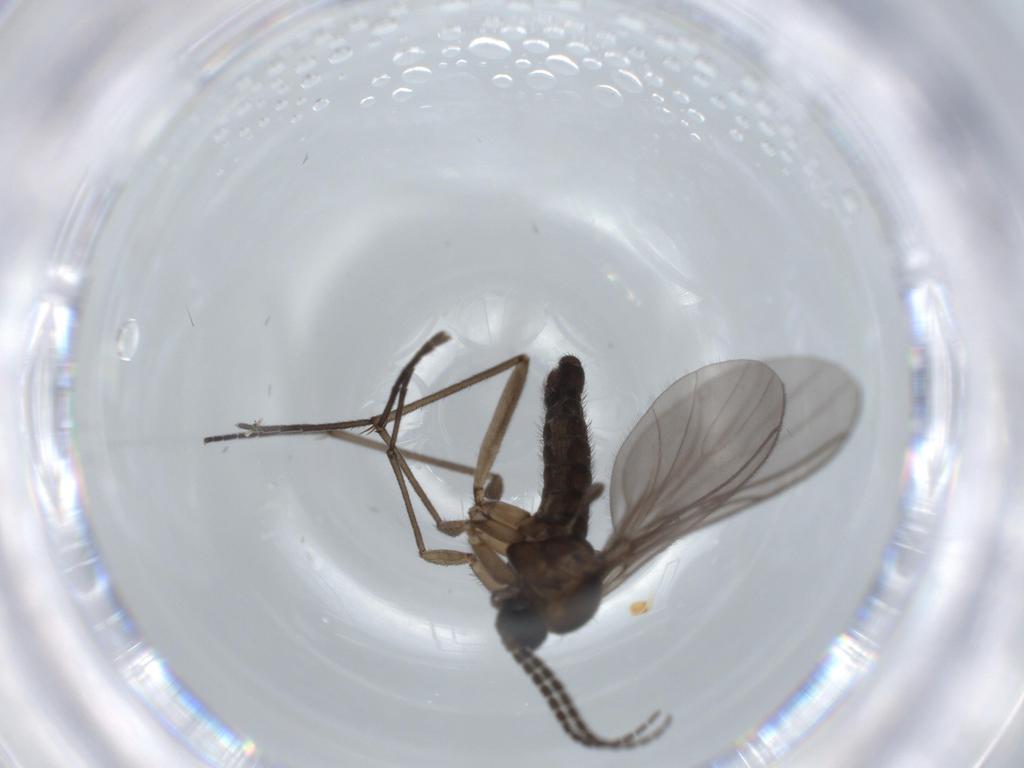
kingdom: Animalia
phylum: Arthropoda
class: Insecta
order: Diptera
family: Sciaridae
